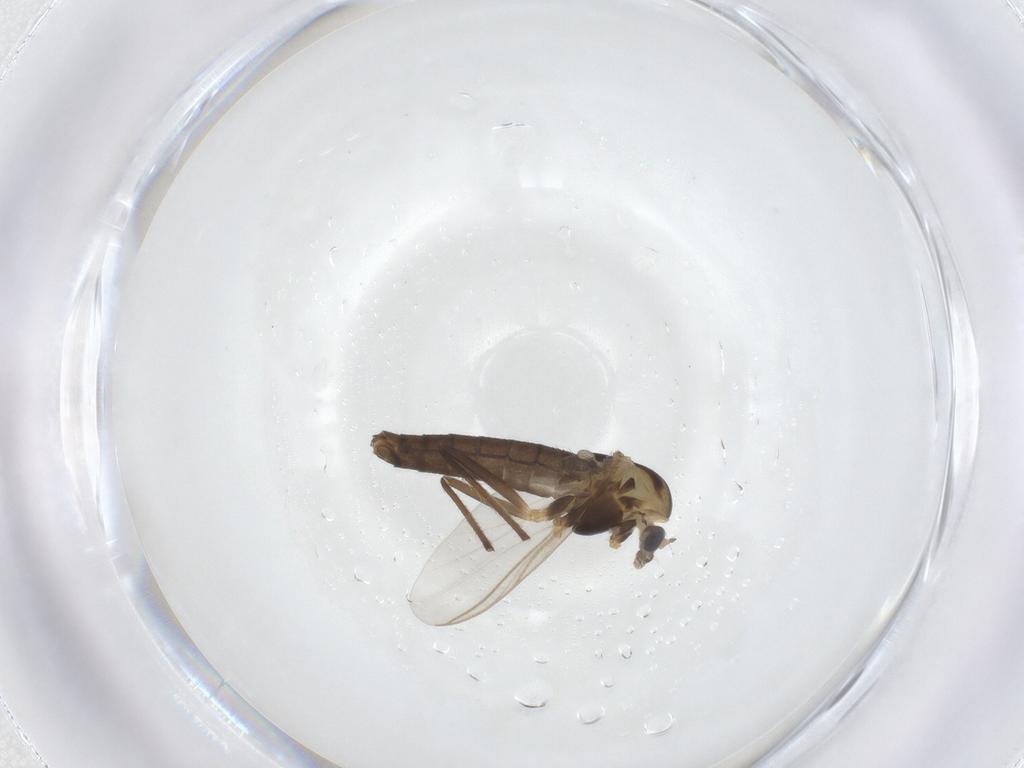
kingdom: Animalia
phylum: Arthropoda
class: Insecta
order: Diptera
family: Chironomidae
